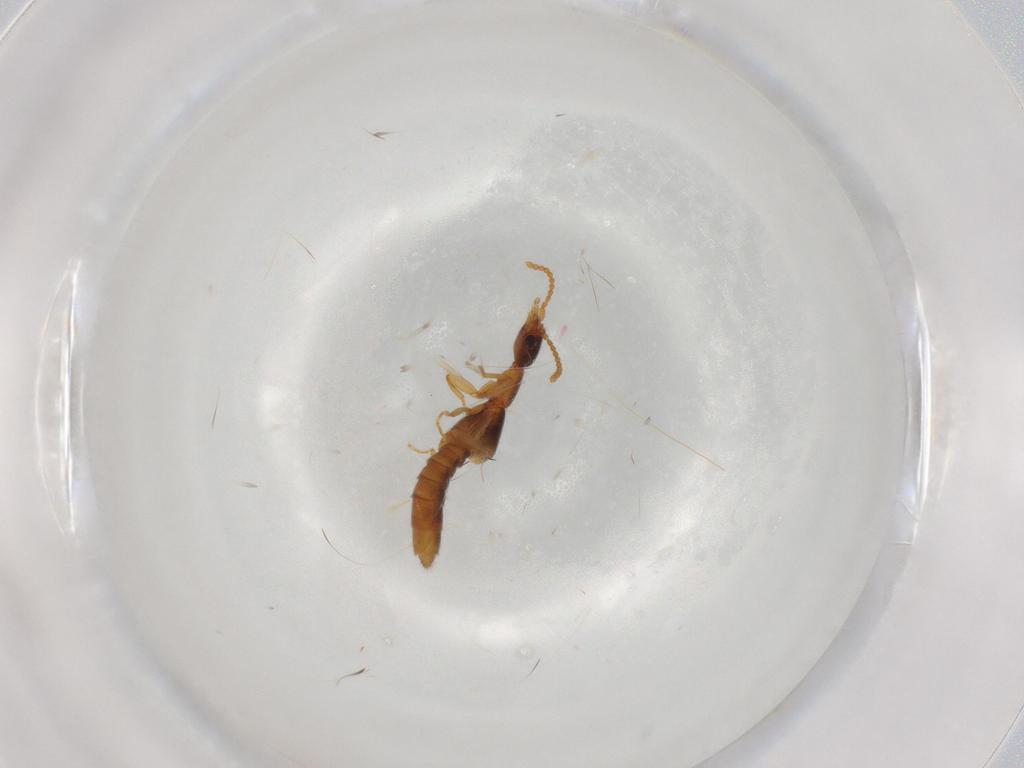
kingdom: Animalia
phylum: Arthropoda
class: Insecta
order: Coleoptera
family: Staphylinidae
